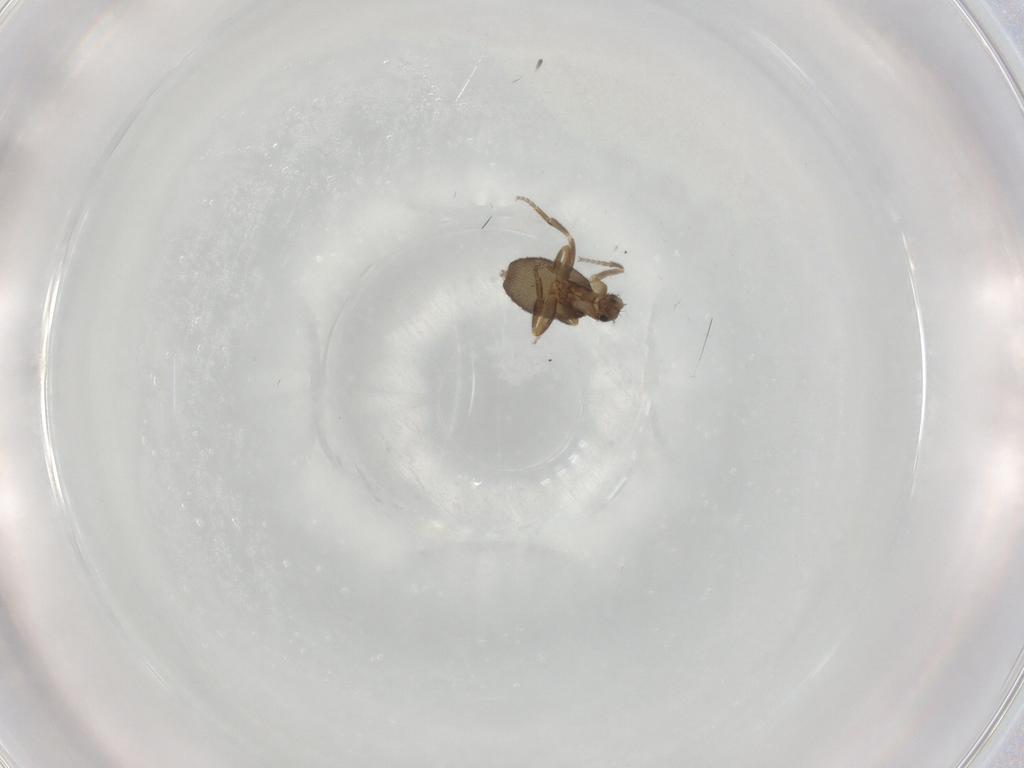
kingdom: Animalia
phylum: Arthropoda
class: Insecta
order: Diptera
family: Phoridae
